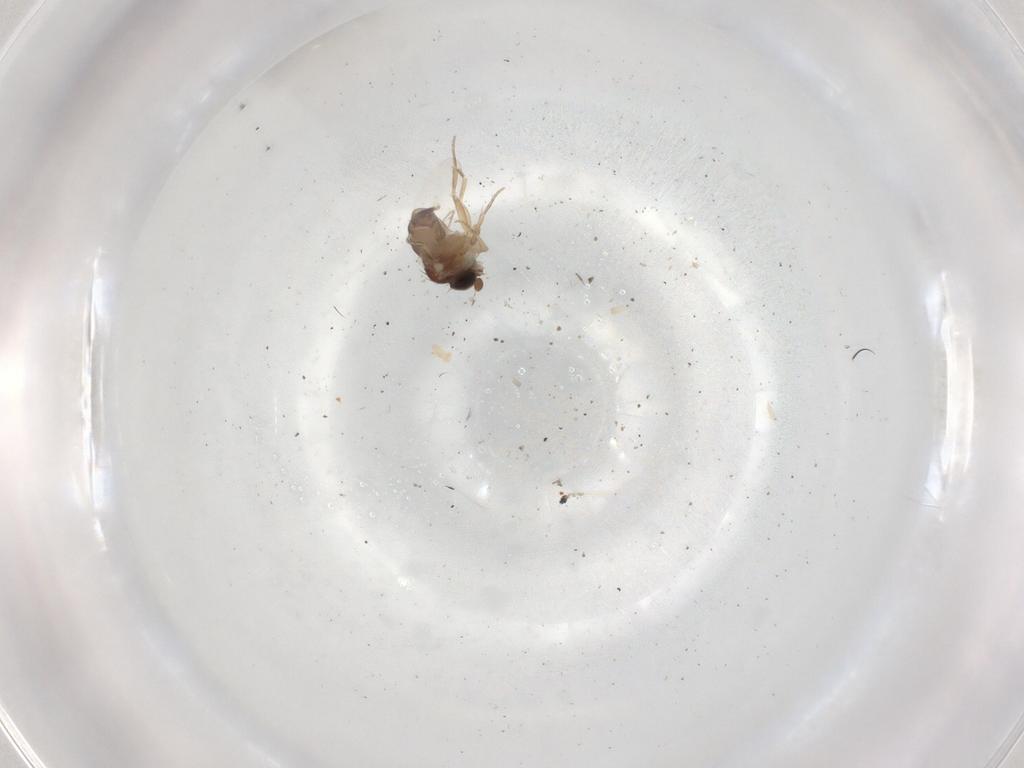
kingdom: Animalia
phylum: Arthropoda
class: Insecta
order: Diptera
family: Phoridae
